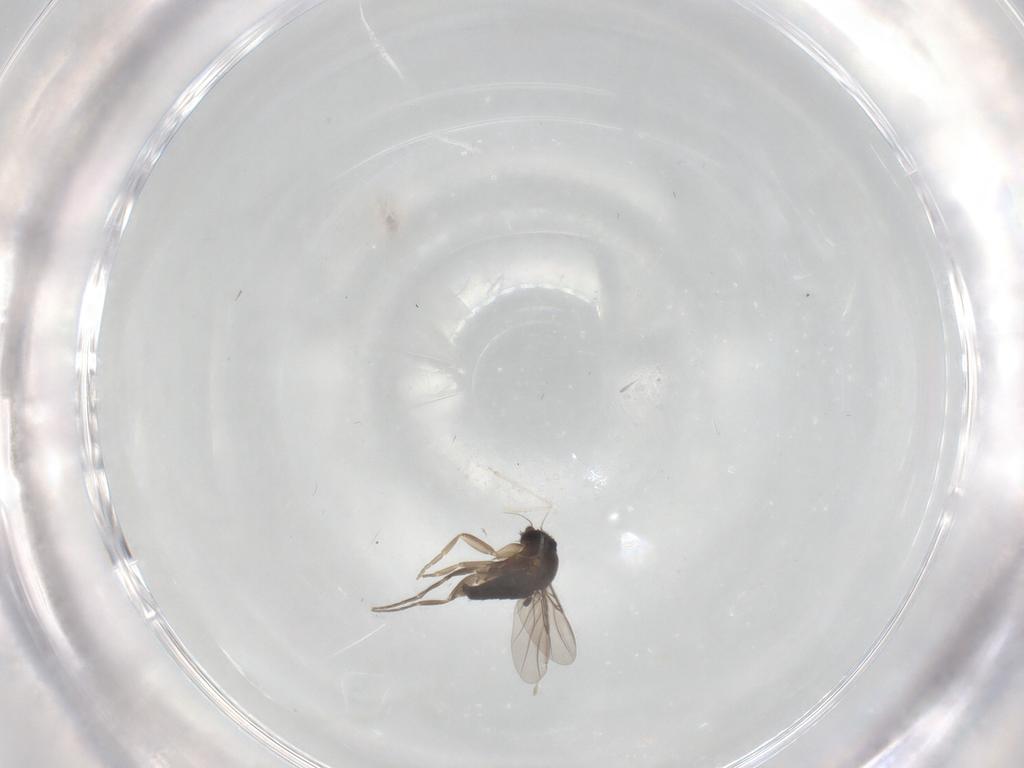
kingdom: Animalia
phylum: Arthropoda
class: Insecta
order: Diptera
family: Phoridae
